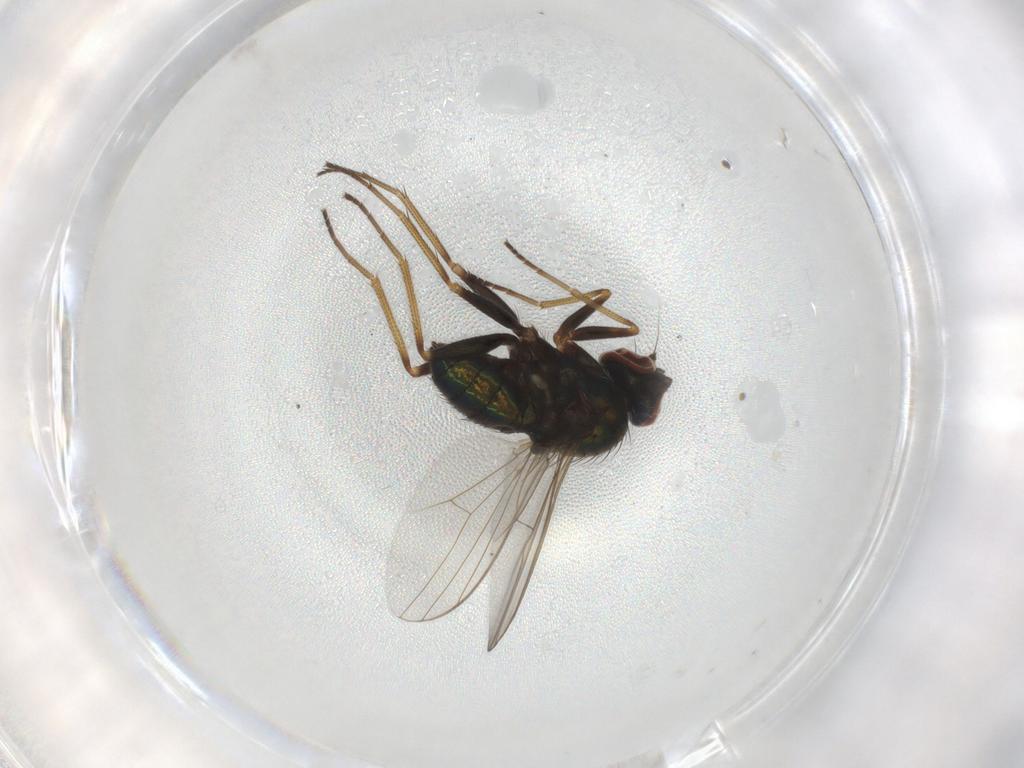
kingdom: Animalia
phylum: Arthropoda
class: Insecta
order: Diptera
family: Dolichopodidae
